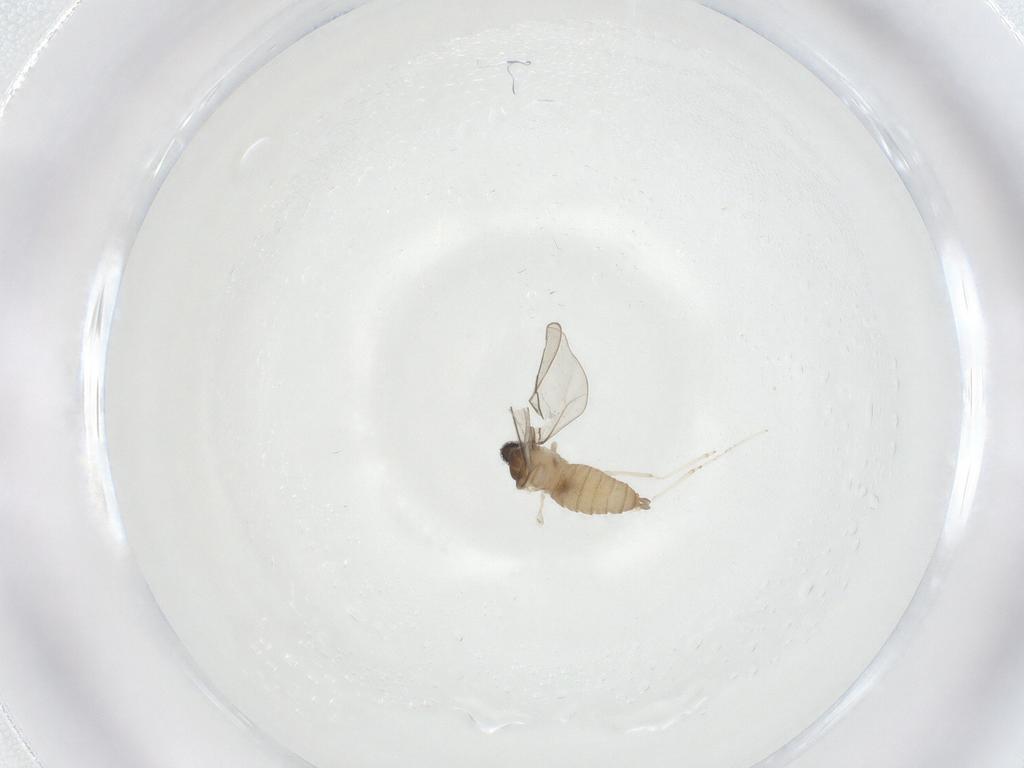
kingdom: Animalia
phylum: Arthropoda
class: Insecta
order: Diptera
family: Cecidomyiidae
